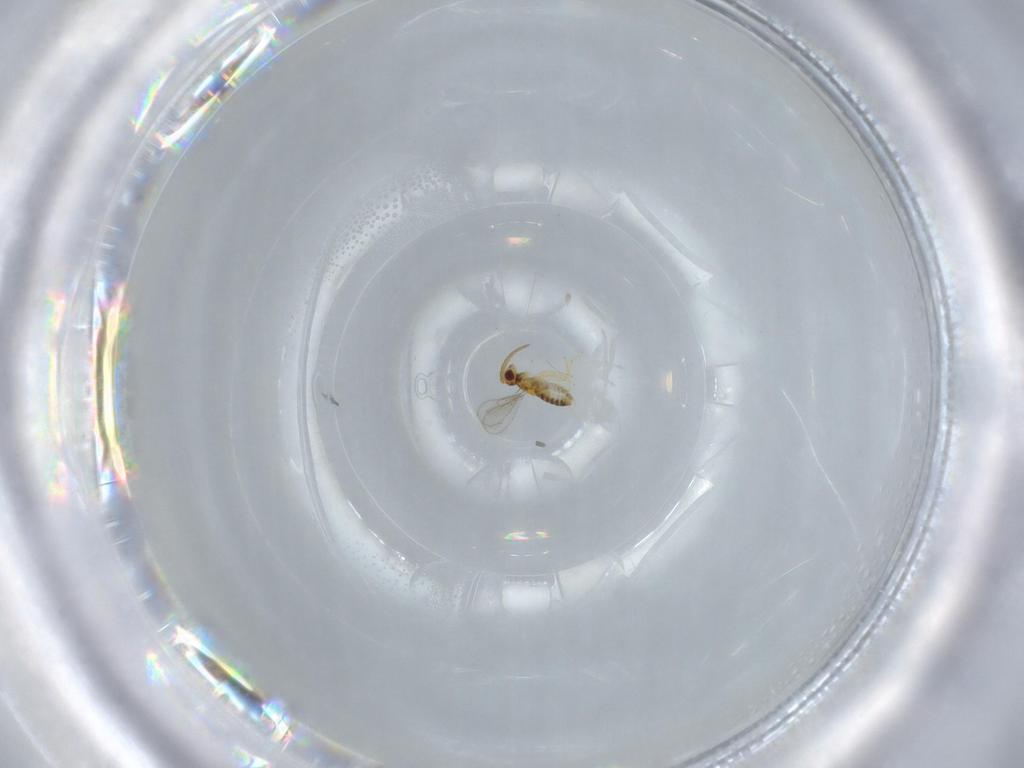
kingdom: Animalia
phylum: Arthropoda
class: Insecta
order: Hymenoptera
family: Aphelinidae
